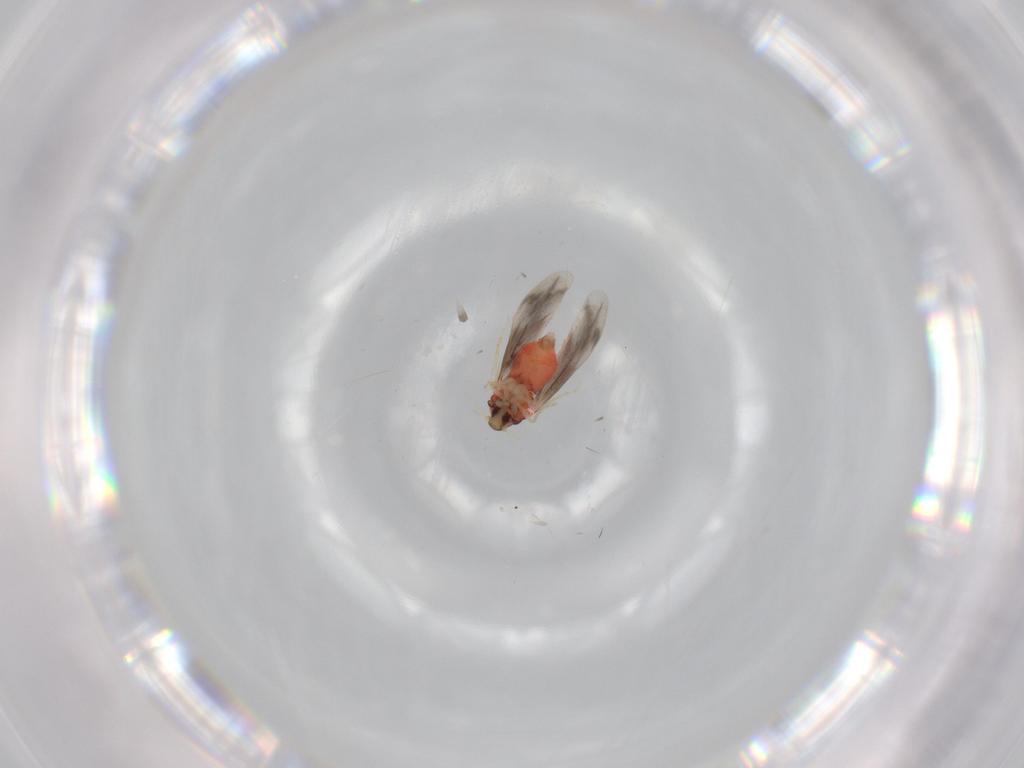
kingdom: Animalia
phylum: Arthropoda
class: Insecta
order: Hemiptera
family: Aleyrodidae
